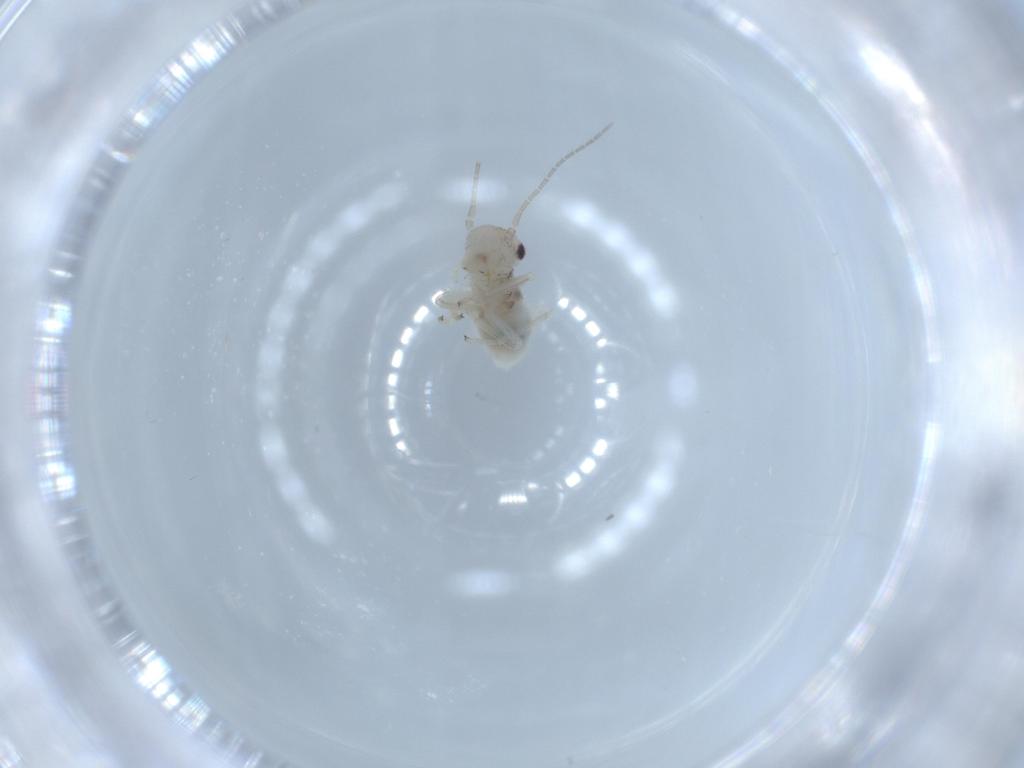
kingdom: Animalia
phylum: Arthropoda
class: Insecta
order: Psocodea
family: Amphipsocidae
